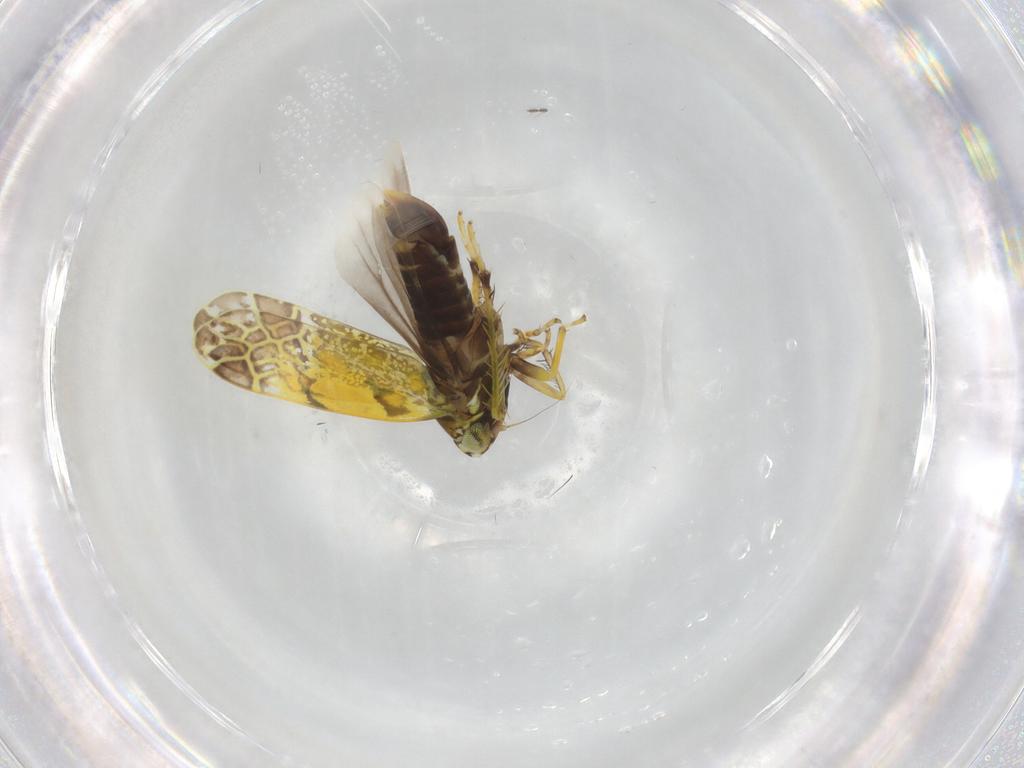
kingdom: Animalia
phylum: Arthropoda
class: Insecta
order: Hemiptera
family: Cicadellidae
